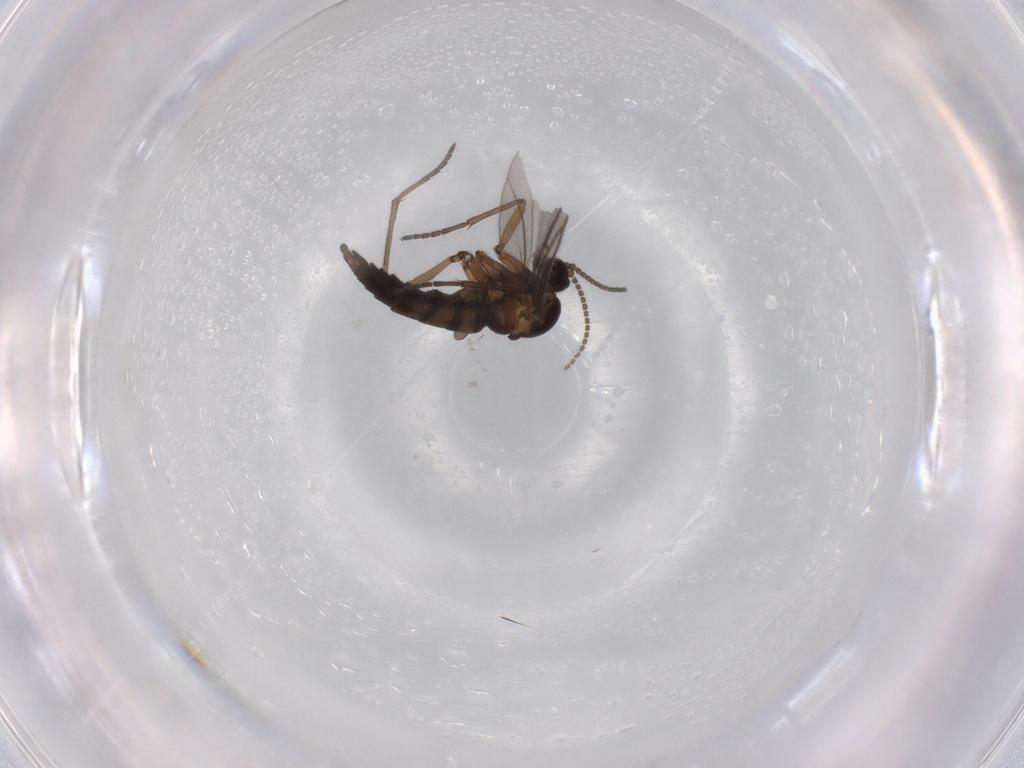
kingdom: Animalia
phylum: Arthropoda
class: Insecta
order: Diptera
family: Sciaridae
